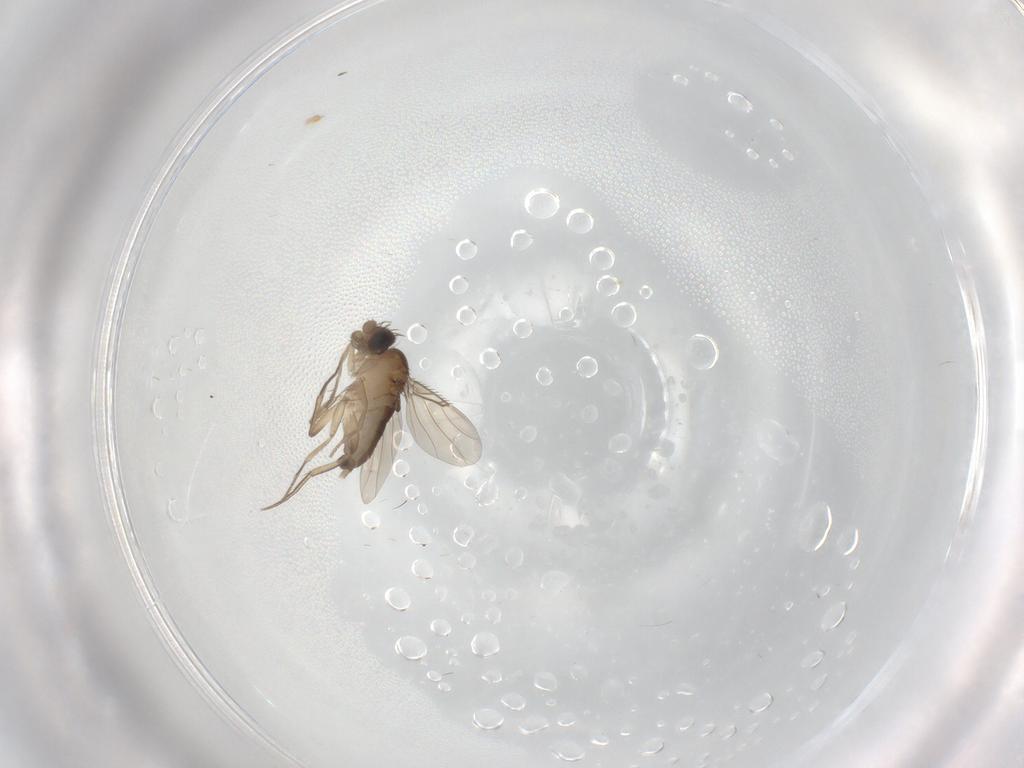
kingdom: Animalia
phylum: Arthropoda
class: Insecta
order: Diptera
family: Phoridae
